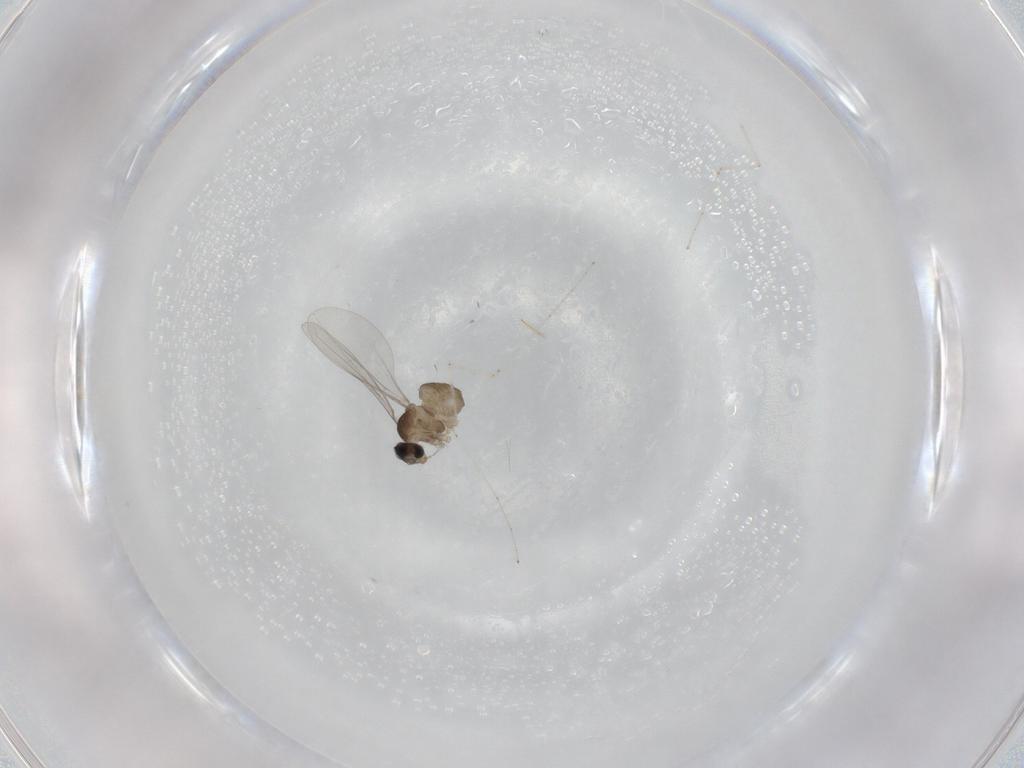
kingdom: Animalia
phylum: Arthropoda
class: Insecta
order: Diptera
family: Cecidomyiidae
